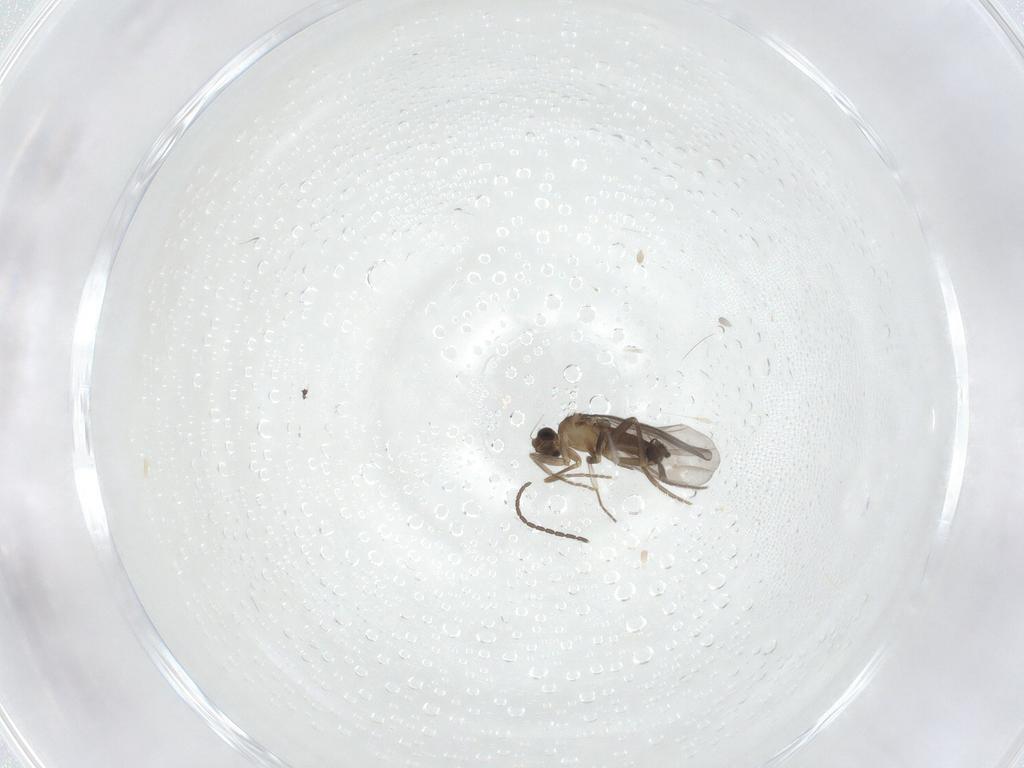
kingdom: Animalia
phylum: Arthropoda
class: Insecta
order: Diptera
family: Chironomidae
